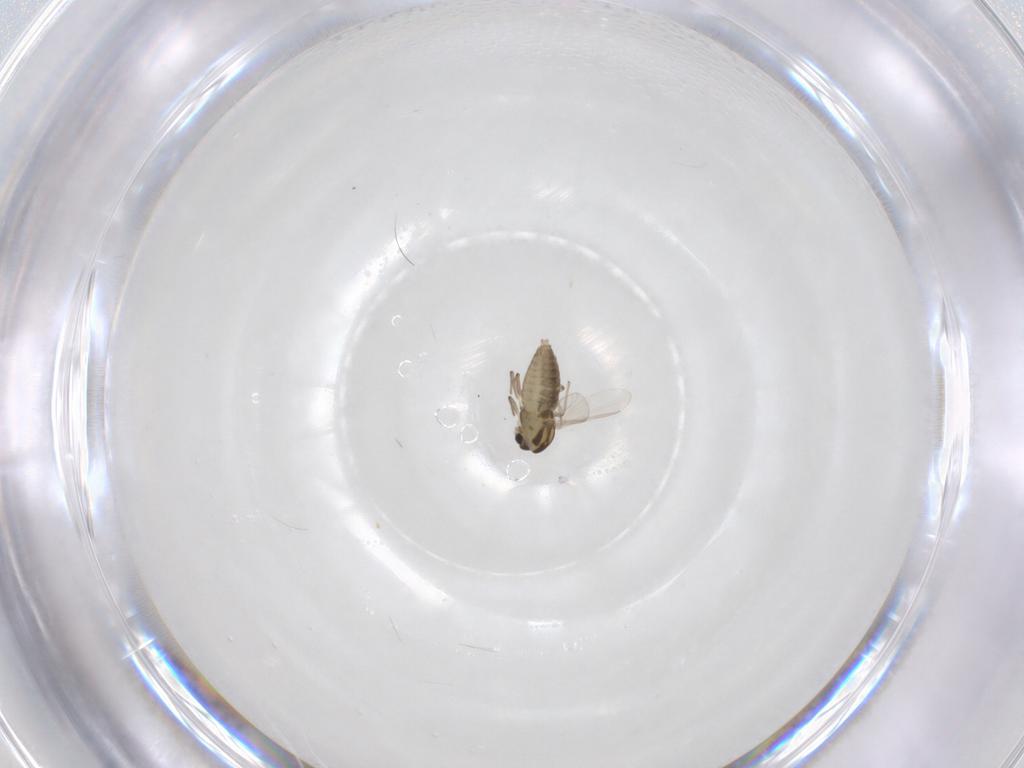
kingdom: Animalia
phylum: Arthropoda
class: Insecta
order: Diptera
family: Chironomidae
